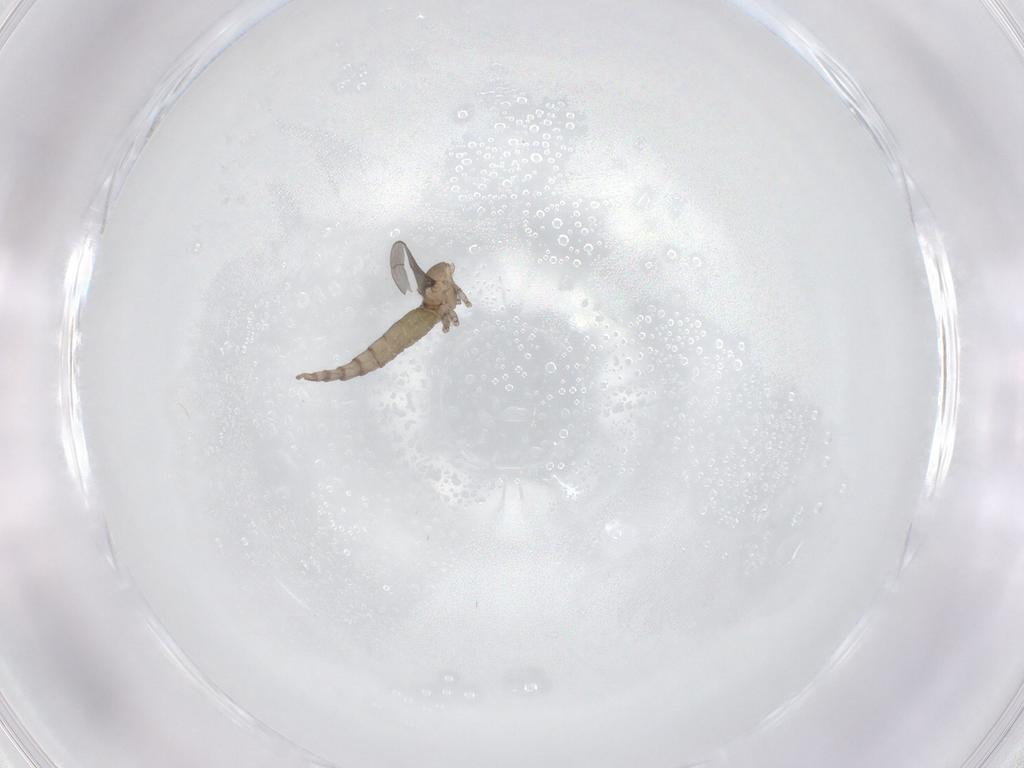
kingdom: Animalia
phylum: Arthropoda
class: Insecta
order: Diptera
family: Cecidomyiidae
